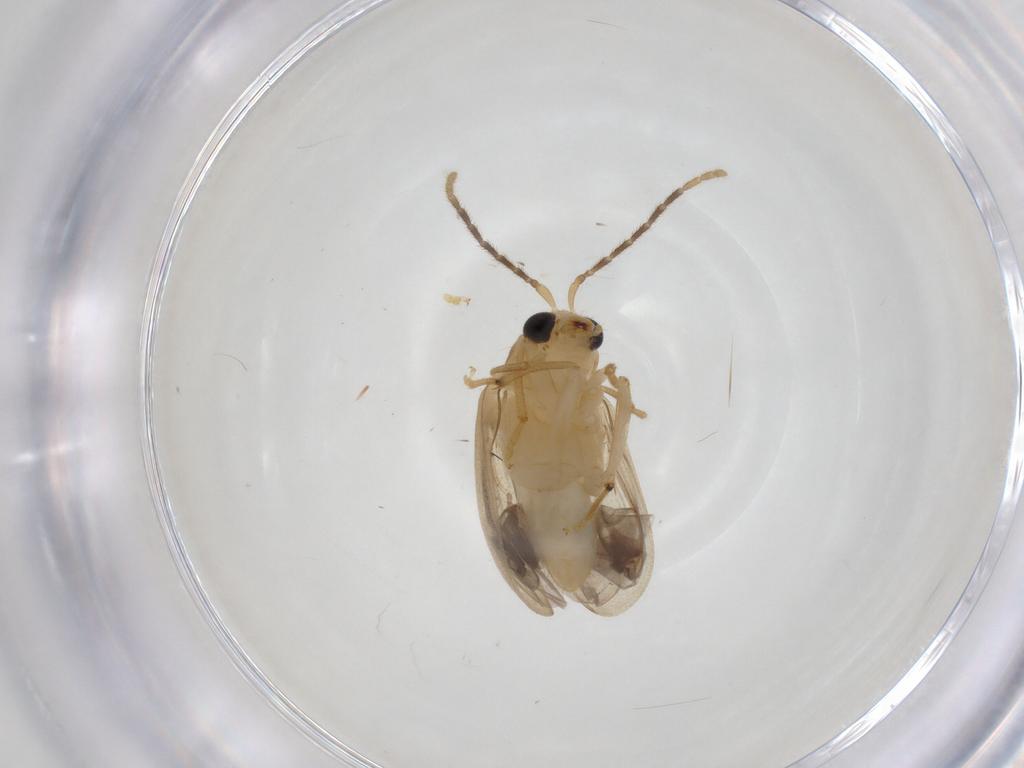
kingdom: Animalia
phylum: Arthropoda
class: Insecta
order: Coleoptera
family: Chrysomelidae
